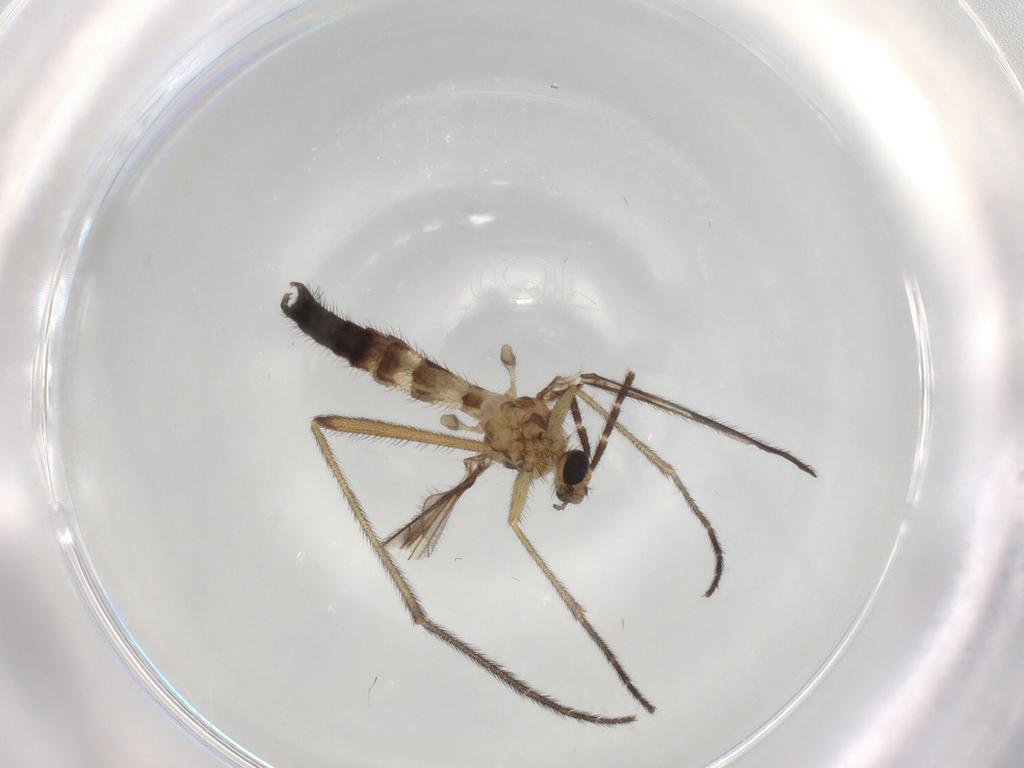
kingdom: Animalia
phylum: Arthropoda
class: Insecta
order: Diptera
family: Keroplatidae
